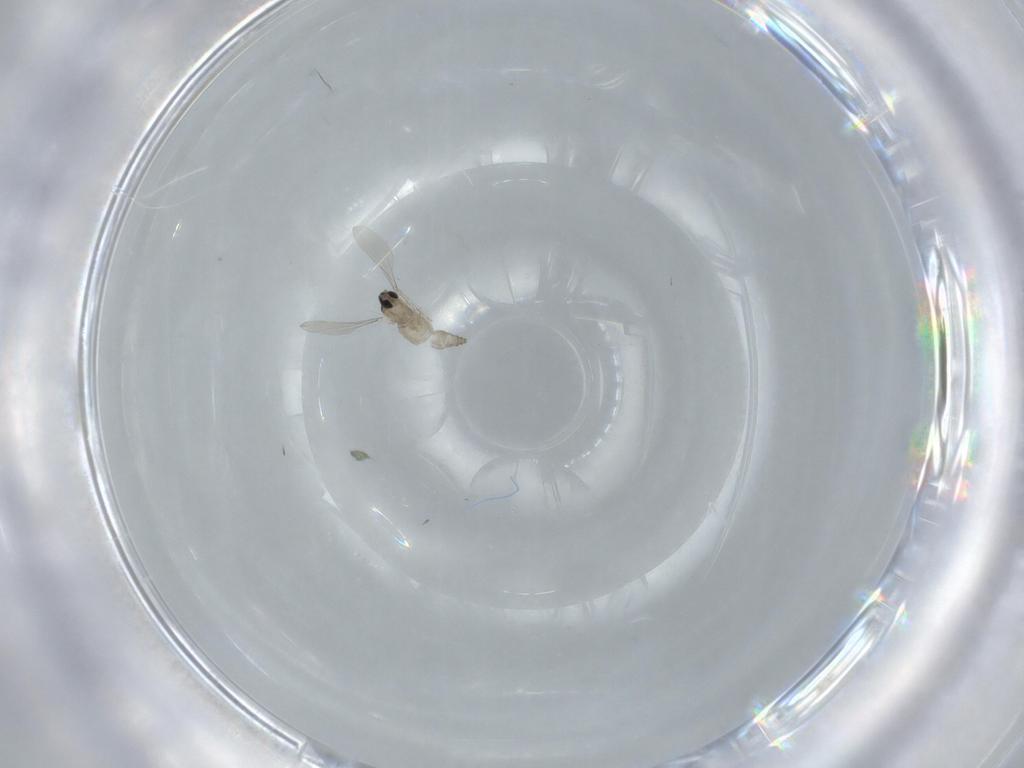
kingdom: Animalia
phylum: Arthropoda
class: Insecta
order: Diptera
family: Cecidomyiidae
